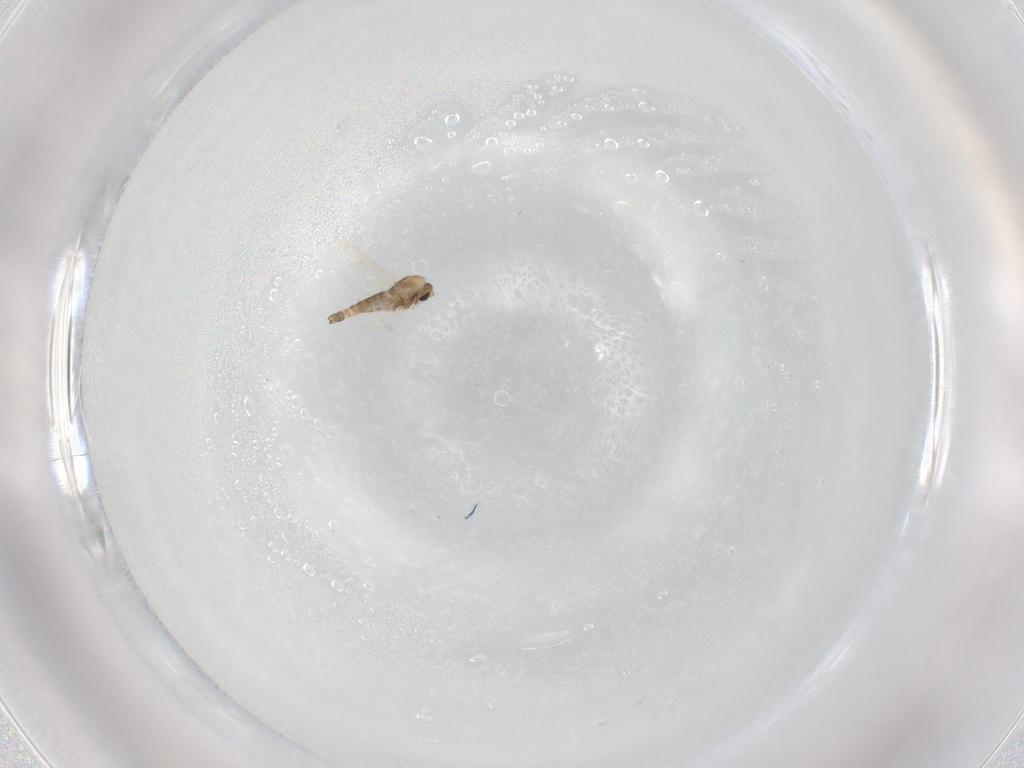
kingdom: Animalia
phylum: Arthropoda
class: Insecta
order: Diptera
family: Chironomidae
